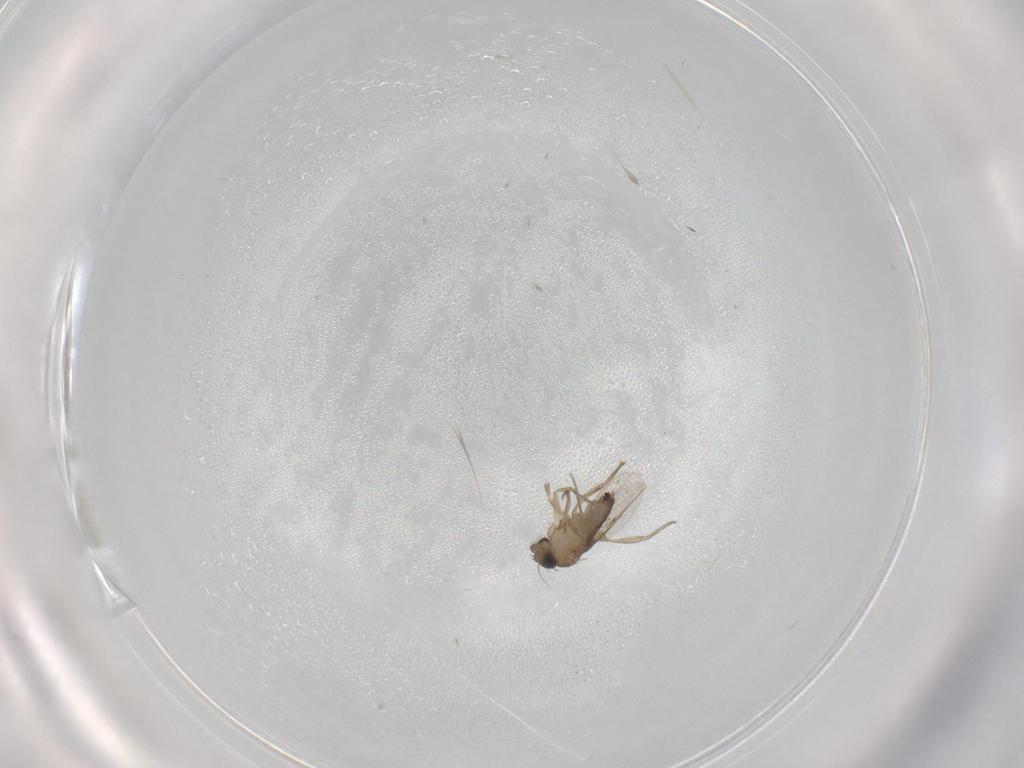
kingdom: Animalia
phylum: Arthropoda
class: Insecta
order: Diptera
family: Phoridae
